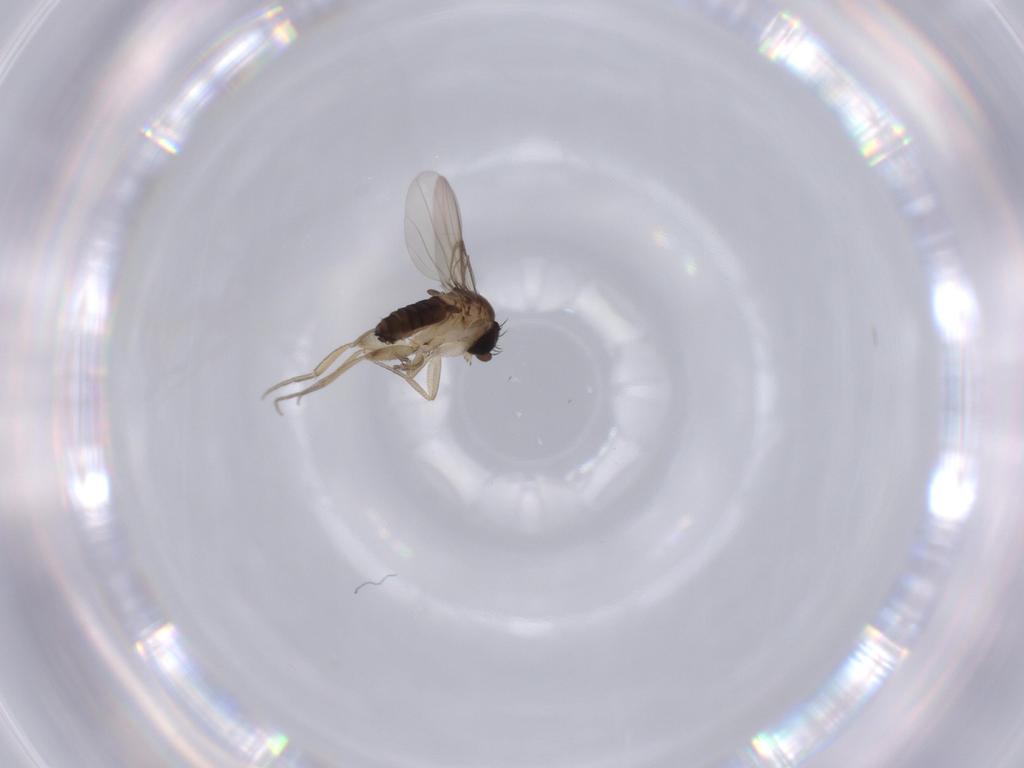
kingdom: Animalia
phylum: Arthropoda
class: Insecta
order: Diptera
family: Phoridae
